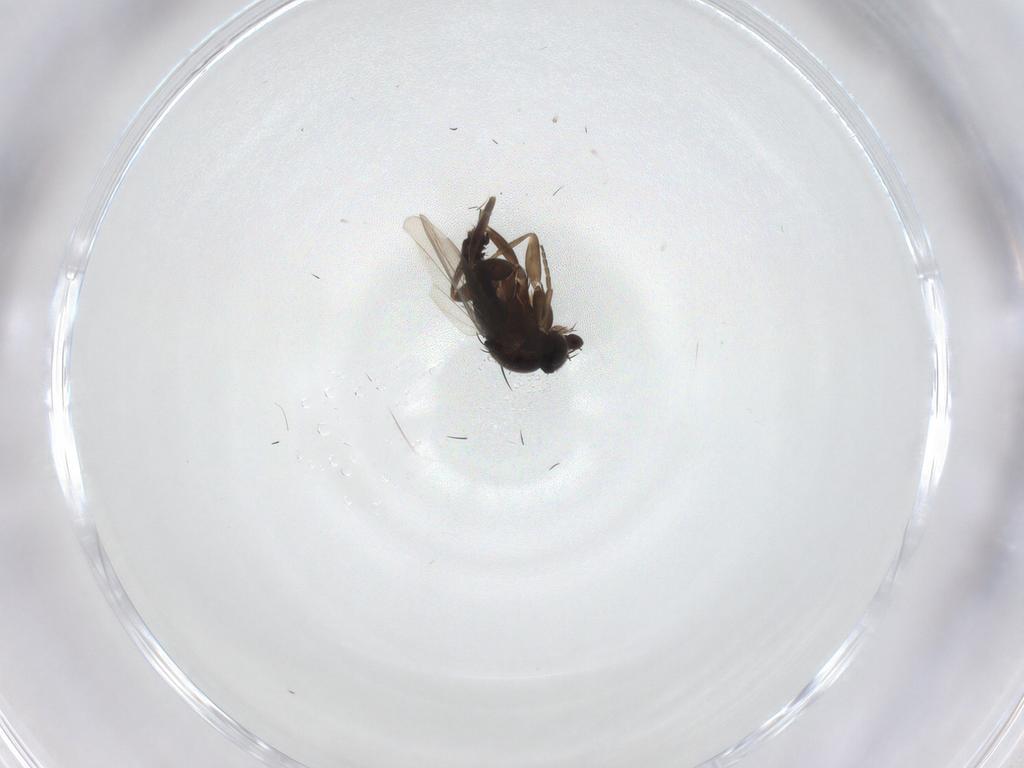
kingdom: Animalia
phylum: Arthropoda
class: Insecta
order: Diptera
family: Cecidomyiidae
